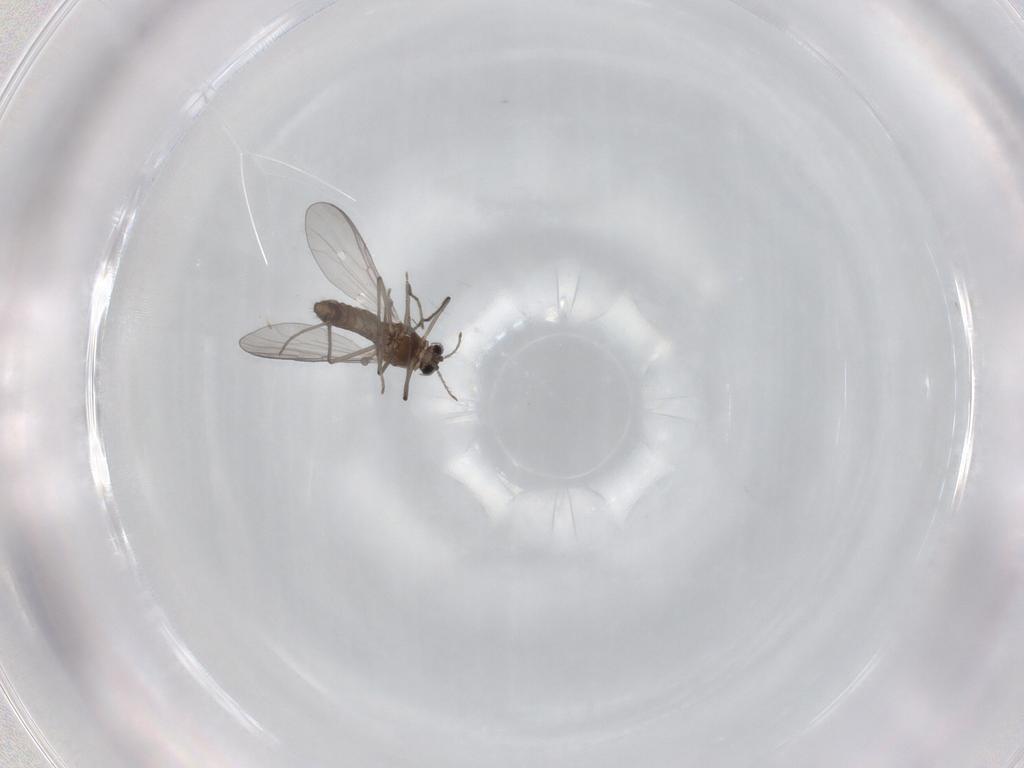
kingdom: Animalia
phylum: Arthropoda
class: Insecta
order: Diptera
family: Chironomidae
